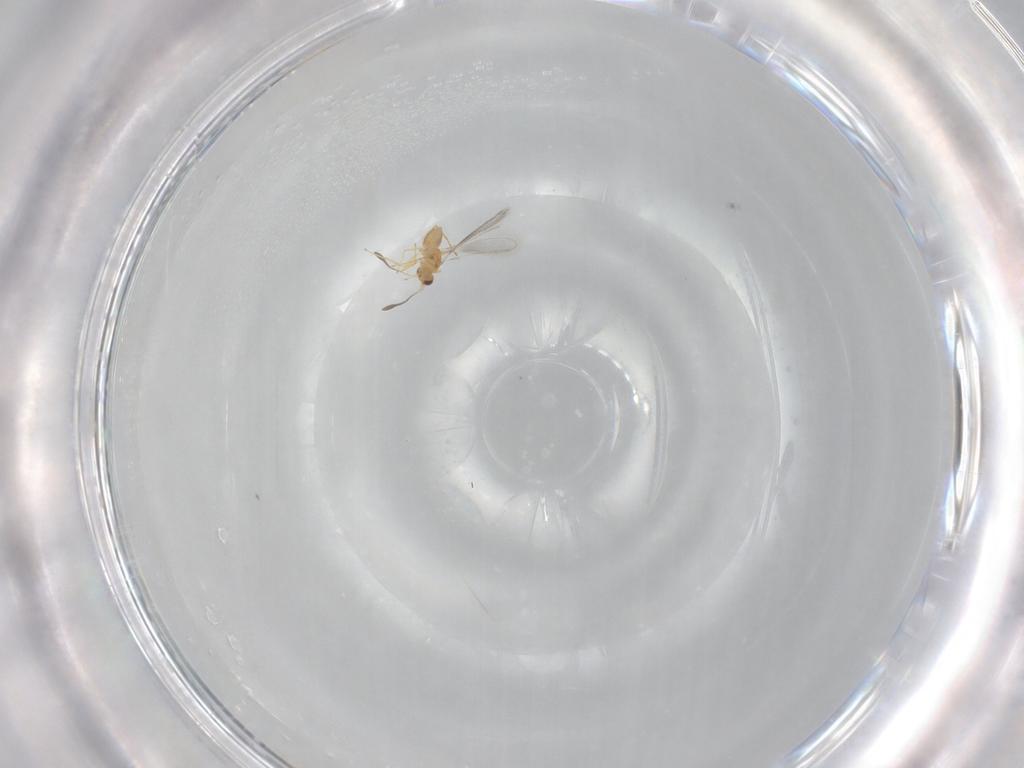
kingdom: Animalia
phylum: Arthropoda
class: Insecta
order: Hymenoptera
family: Mymaridae
